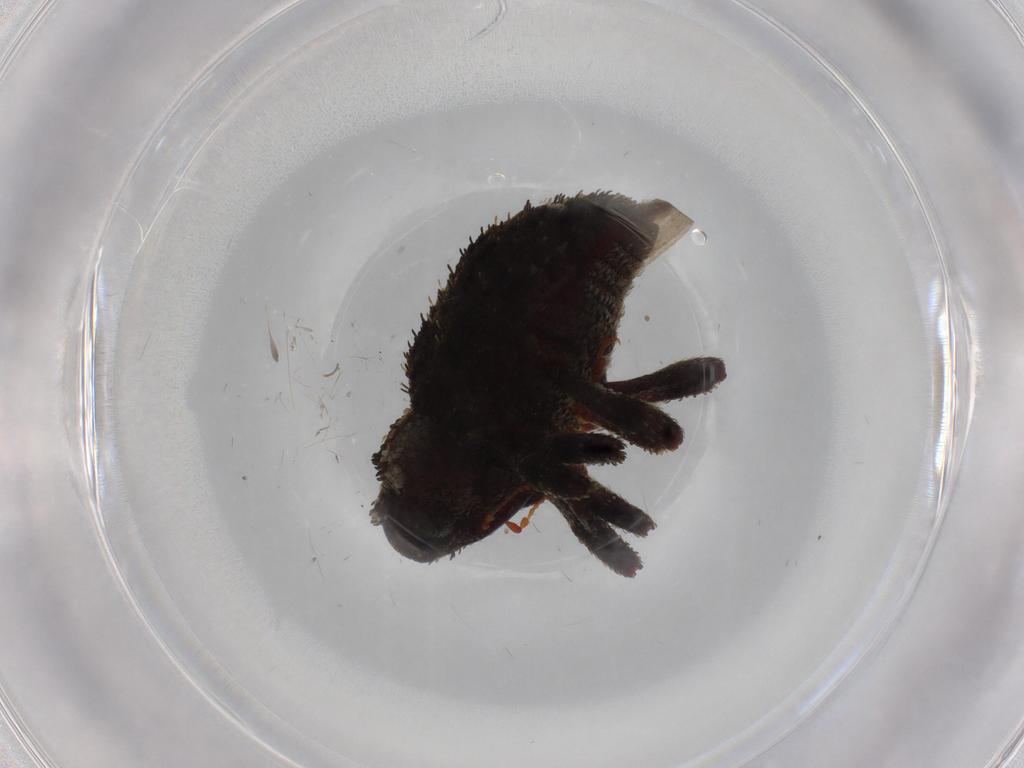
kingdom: Animalia
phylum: Arthropoda
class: Insecta
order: Coleoptera
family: Curculionidae
